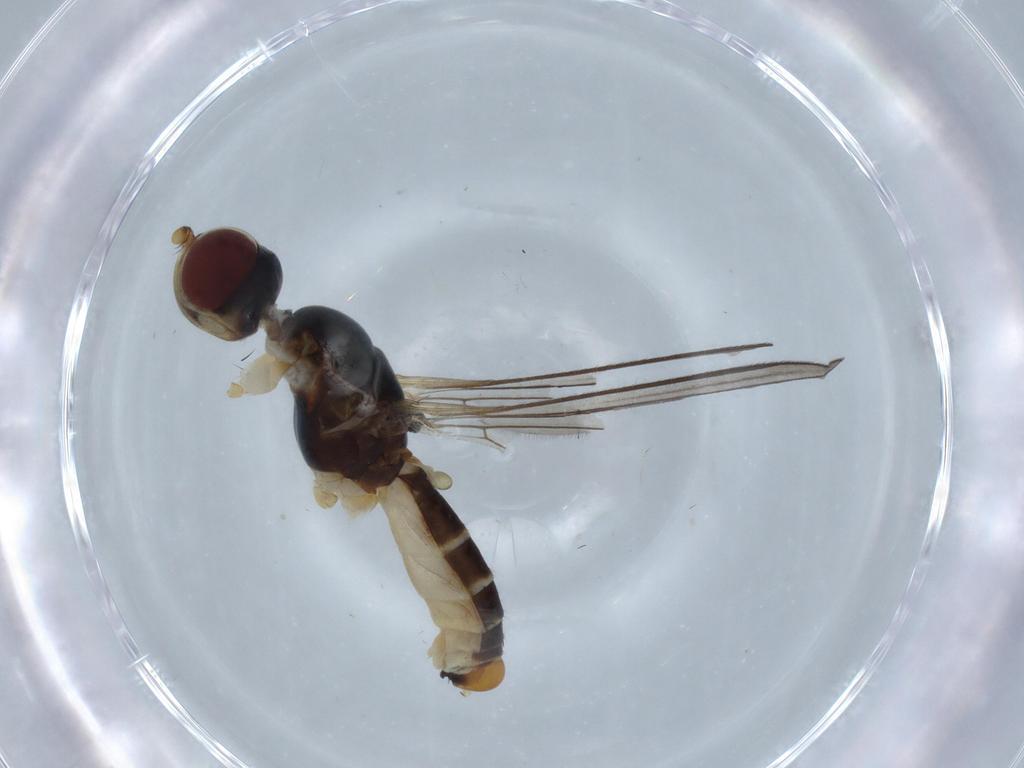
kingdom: Animalia
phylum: Arthropoda
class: Insecta
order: Diptera
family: Micropezidae
